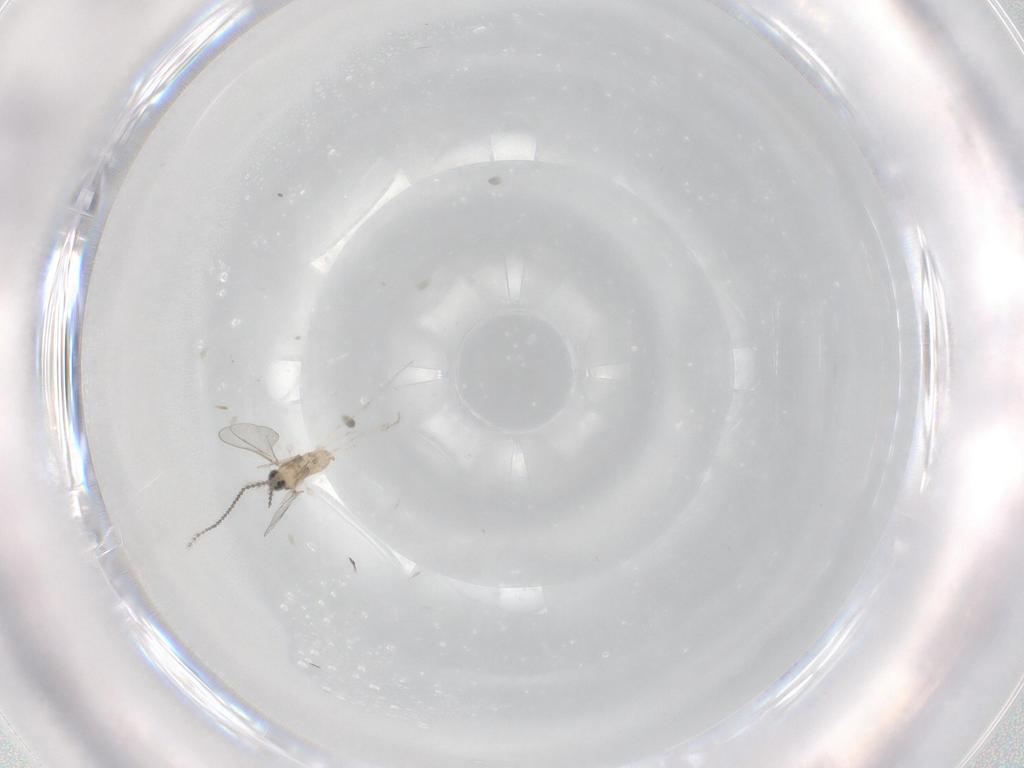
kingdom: Animalia
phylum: Arthropoda
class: Insecta
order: Diptera
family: Cecidomyiidae
